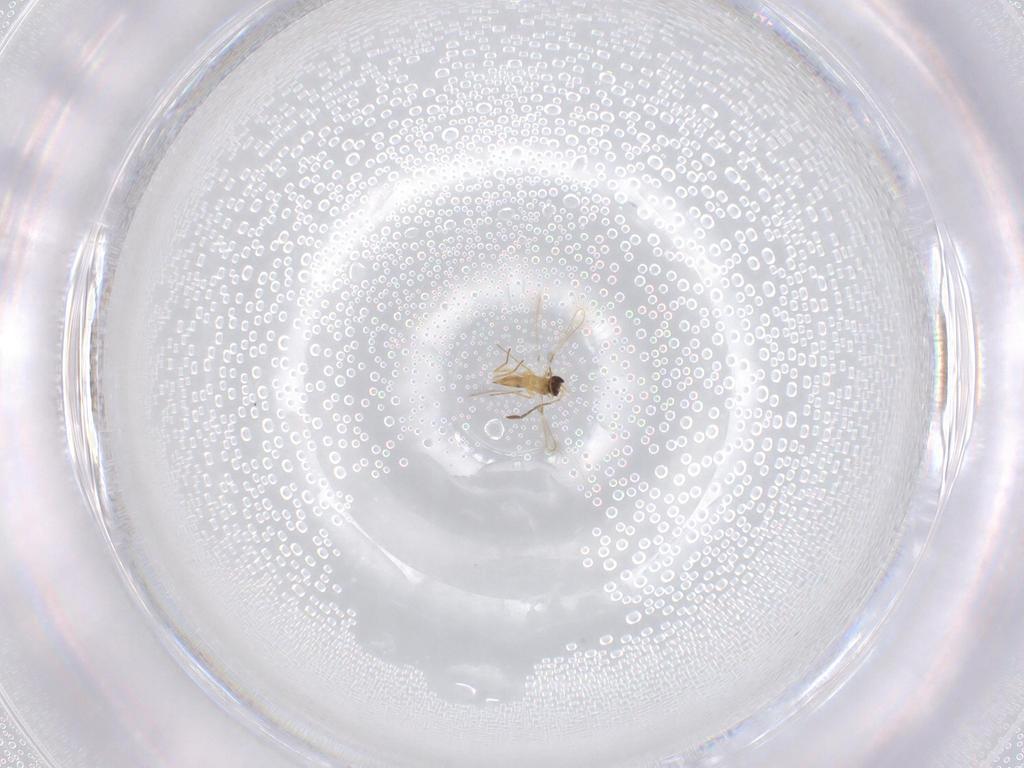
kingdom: Animalia
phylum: Arthropoda
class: Insecta
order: Hymenoptera
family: Mymaridae
